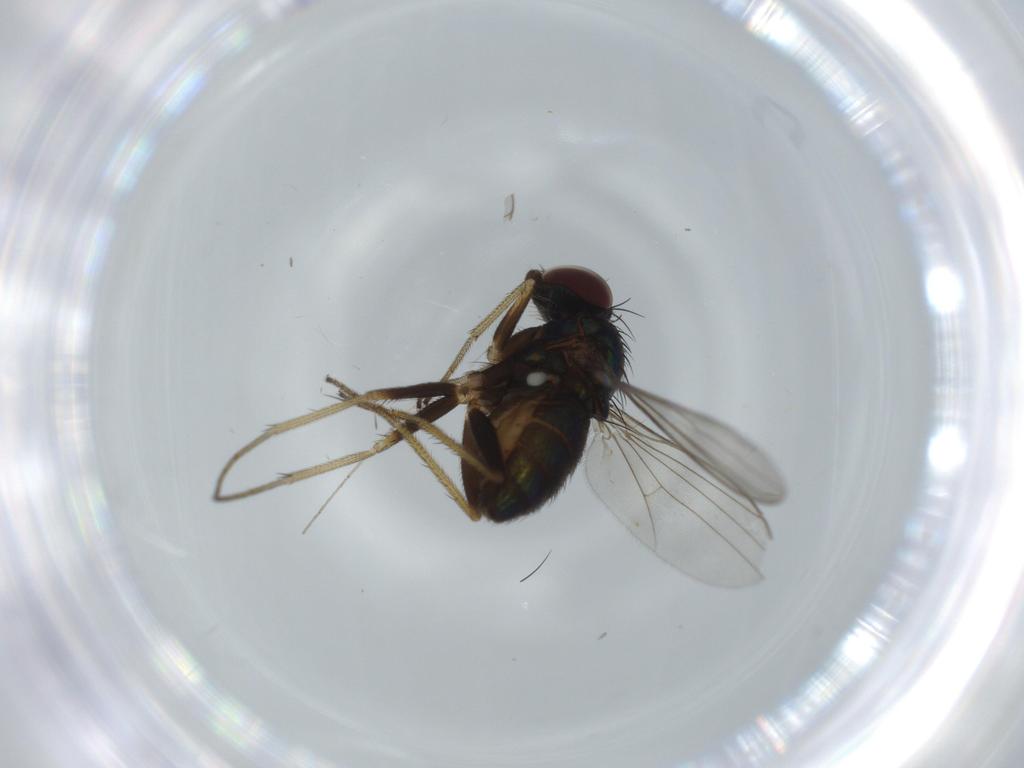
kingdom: Animalia
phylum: Arthropoda
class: Insecta
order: Diptera
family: Dolichopodidae
